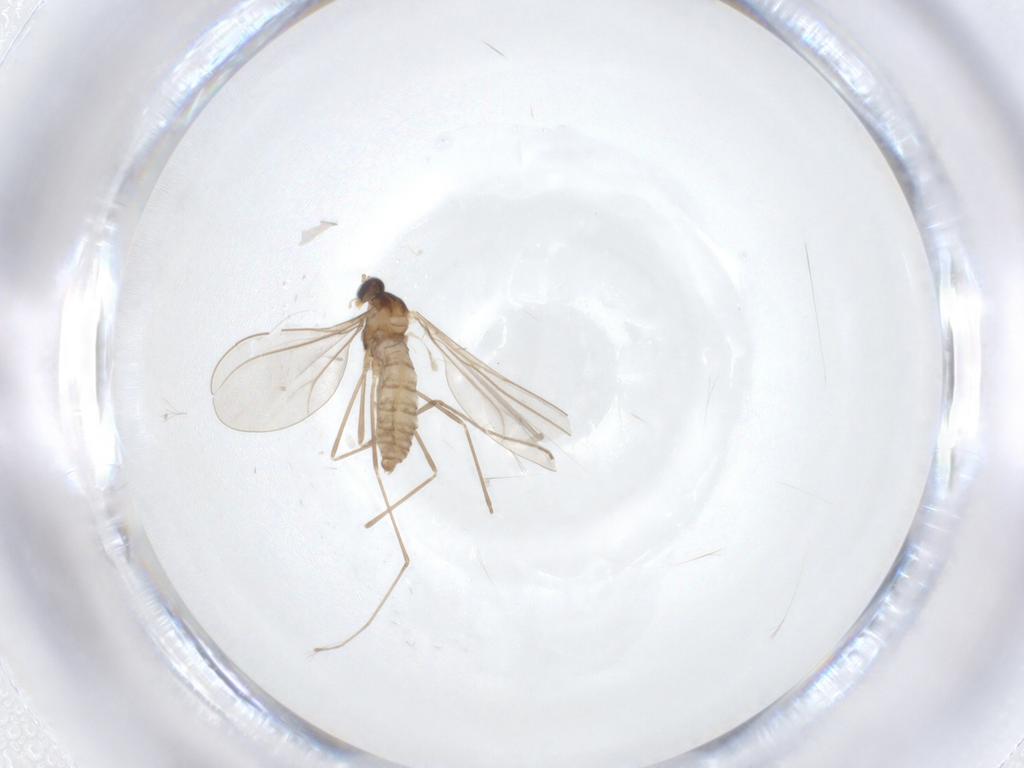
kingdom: Animalia
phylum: Arthropoda
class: Insecta
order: Diptera
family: Cecidomyiidae
